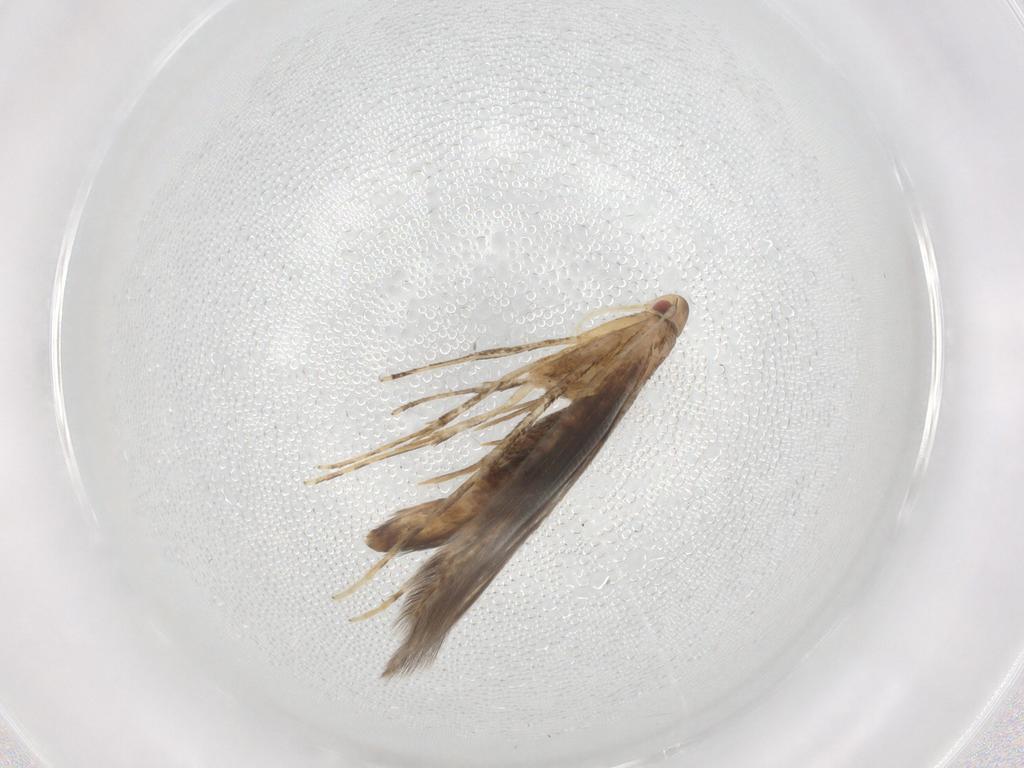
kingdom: Animalia
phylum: Arthropoda
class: Insecta
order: Lepidoptera
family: Cosmopterigidae
